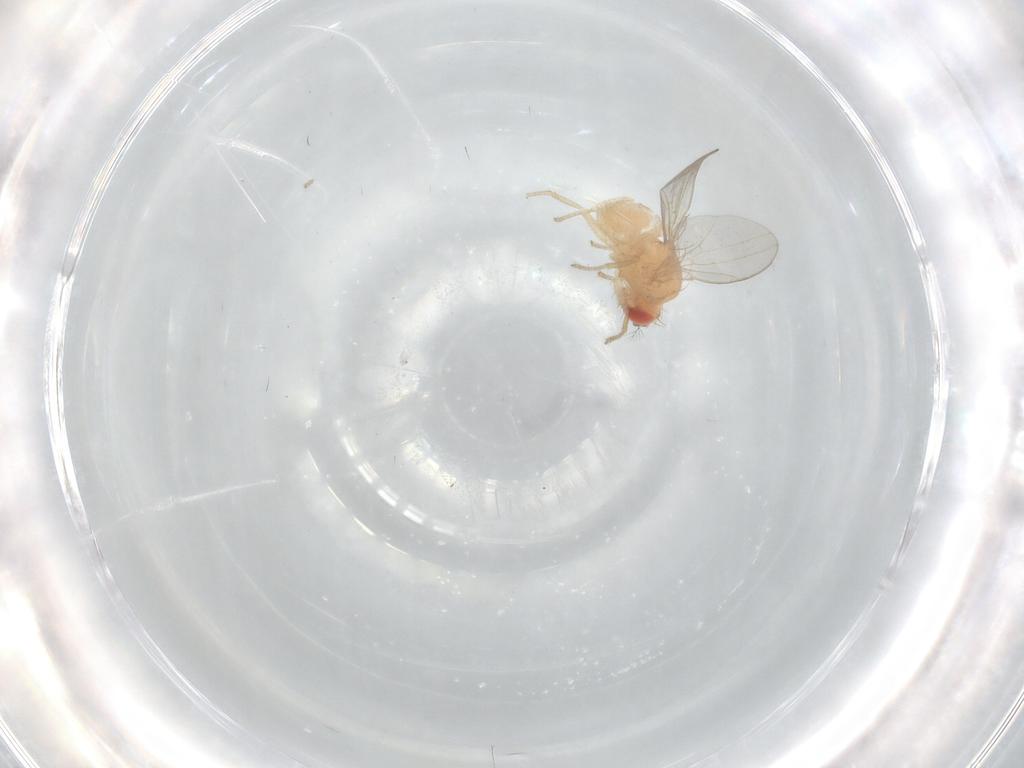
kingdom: Animalia
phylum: Arthropoda
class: Insecta
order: Diptera
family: Drosophilidae
